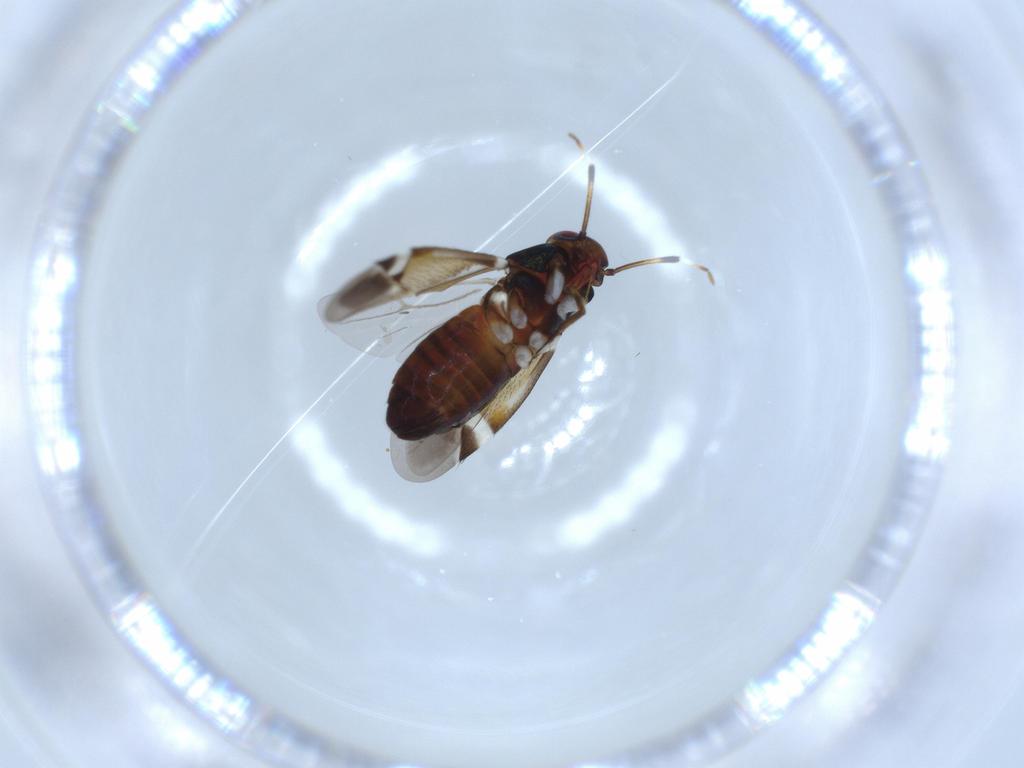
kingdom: Animalia
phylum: Arthropoda
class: Insecta
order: Hemiptera
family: Miridae
